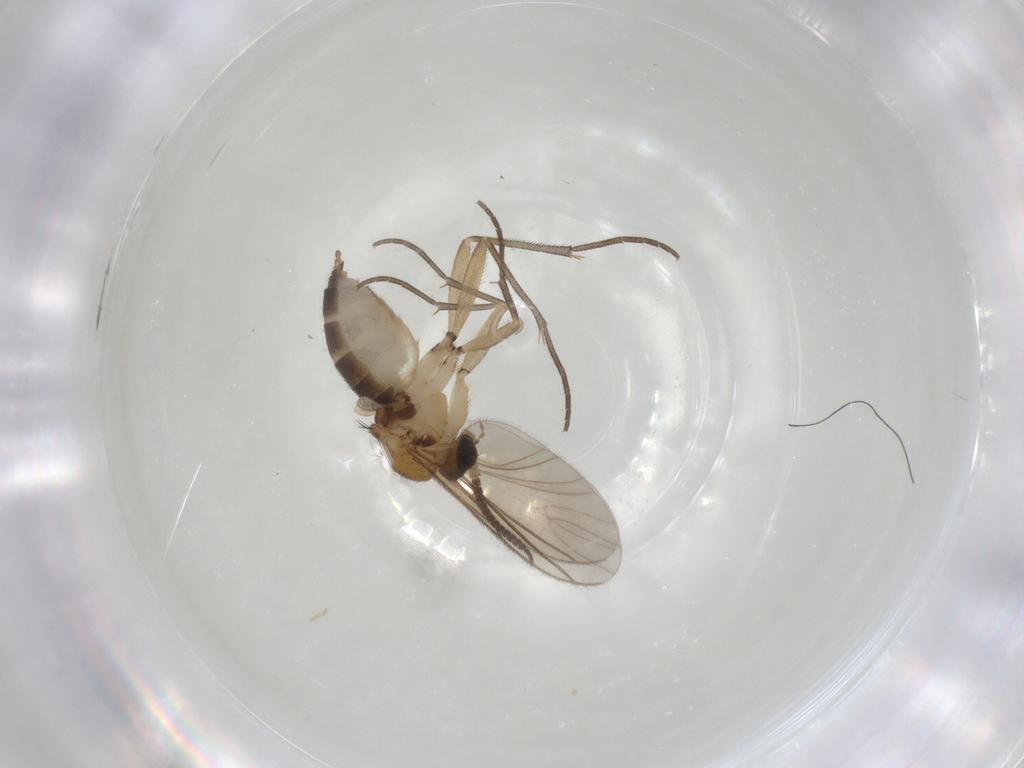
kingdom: Animalia
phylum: Arthropoda
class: Insecta
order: Diptera
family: Sciaridae
